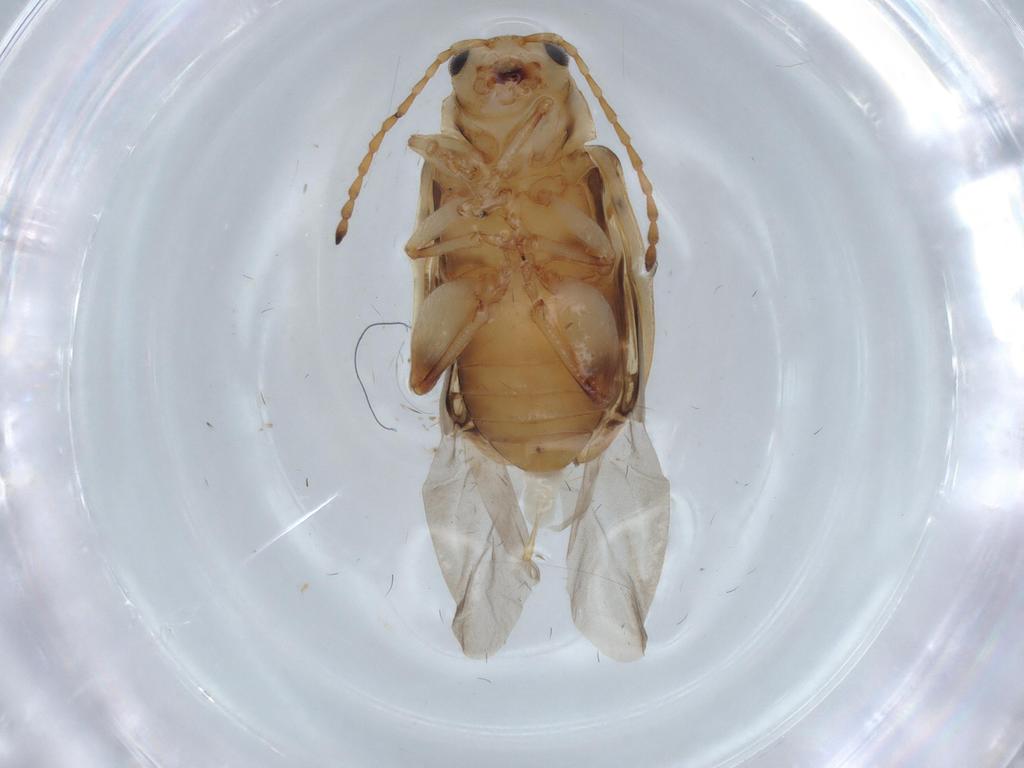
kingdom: Animalia
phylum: Arthropoda
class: Insecta
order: Coleoptera
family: Chrysomelidae
